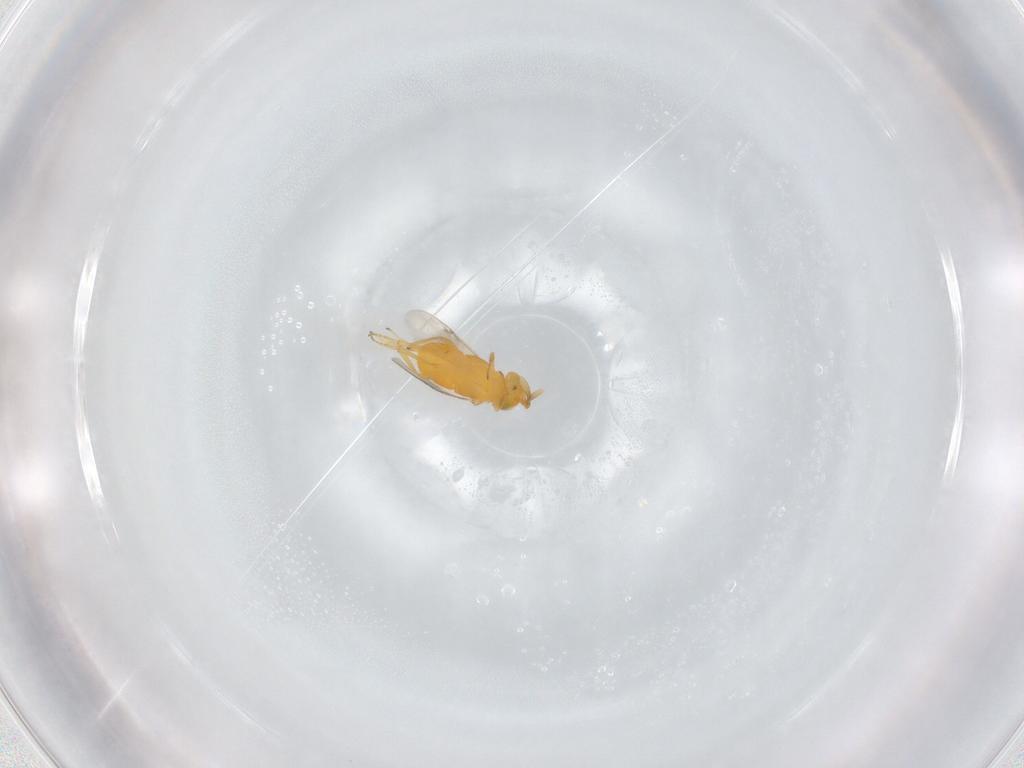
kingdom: Animalia
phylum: Arthropoda
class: Insecta
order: Hymenoptera
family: Encyrtidae
